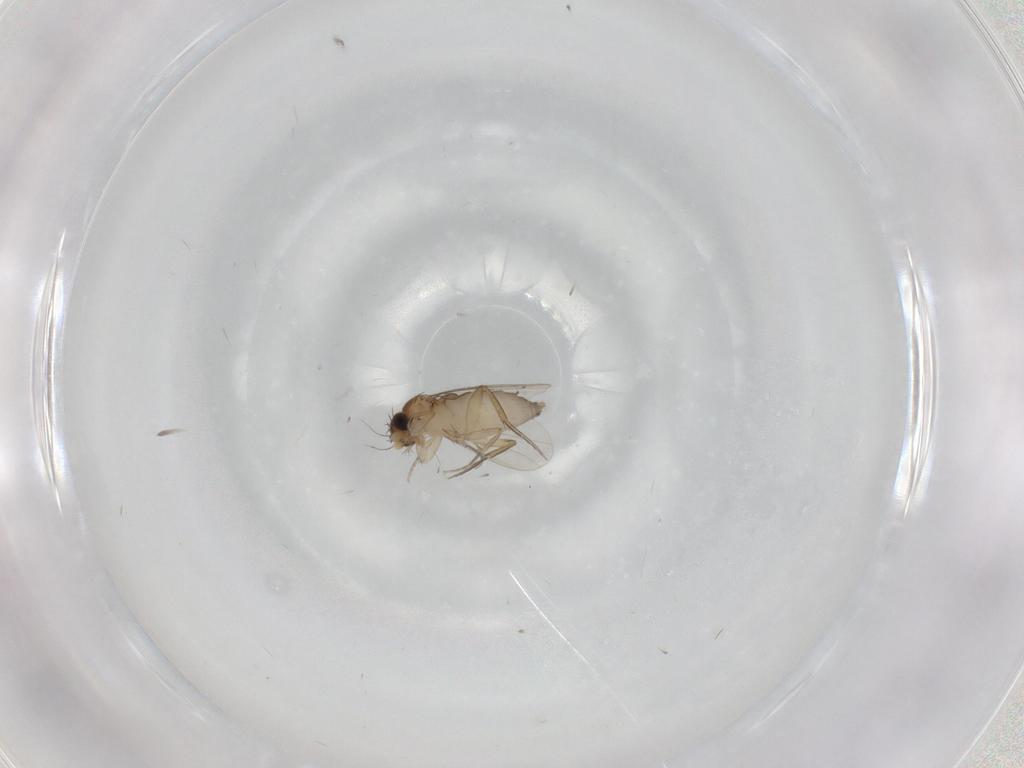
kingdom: Animalia
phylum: Arthropoda
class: Insecta
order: Diptera
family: Phoridae
